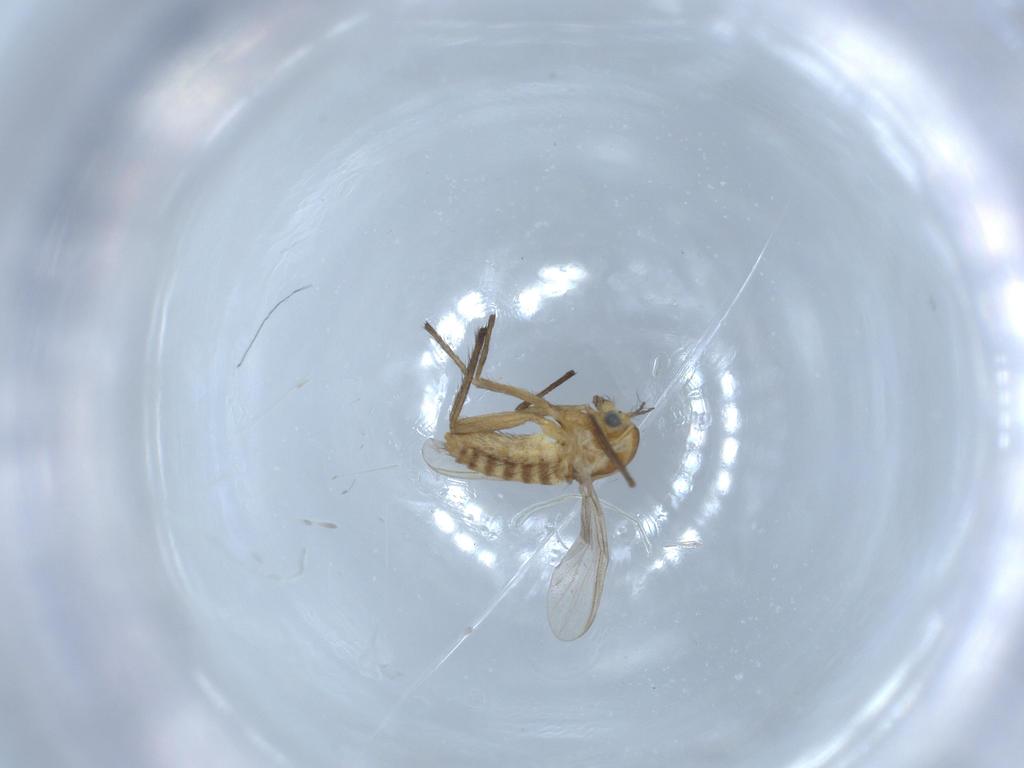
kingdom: Animalia
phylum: Arthropoda
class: Insecta
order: Diptera
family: Chironomidae
